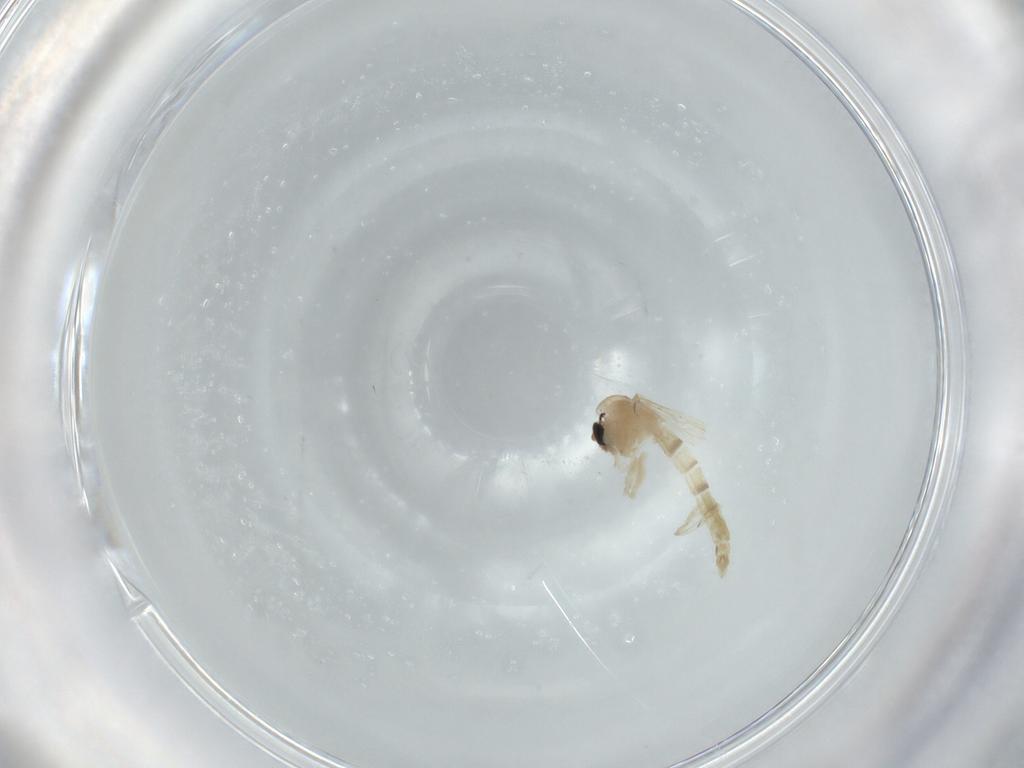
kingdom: Animalia
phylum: Arthropoda
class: Insecta
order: Diptera
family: Chironomidae
